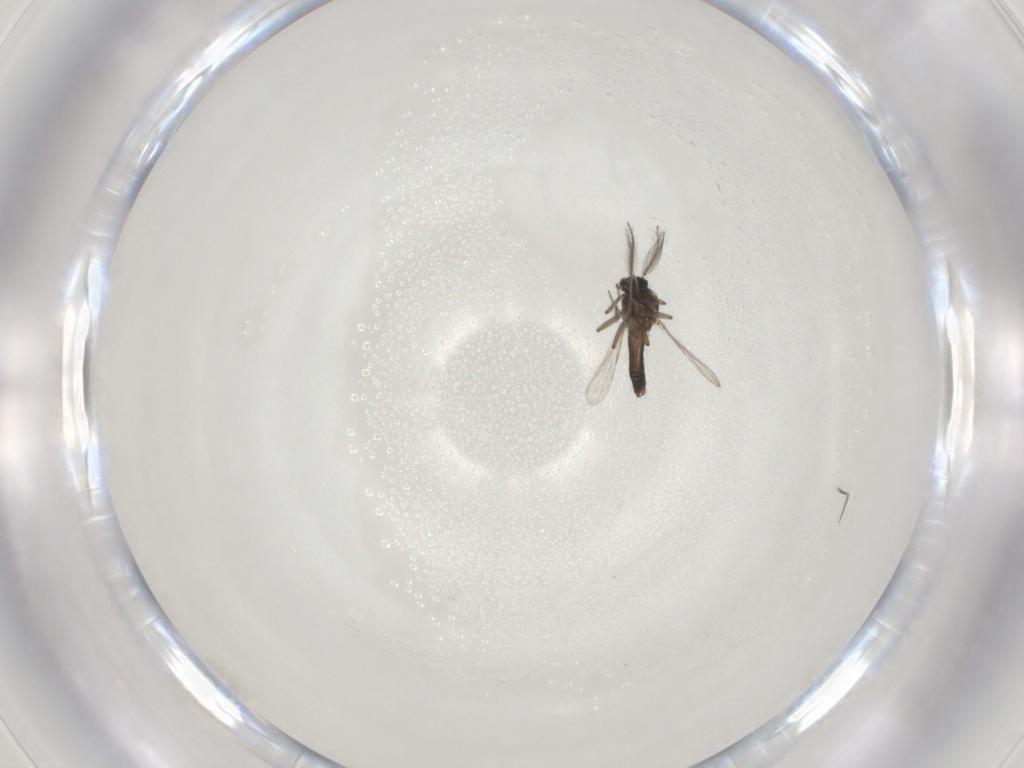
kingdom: Animalia
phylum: Arthropoda
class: Insecta
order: Diptera
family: Ceratopogonidae
